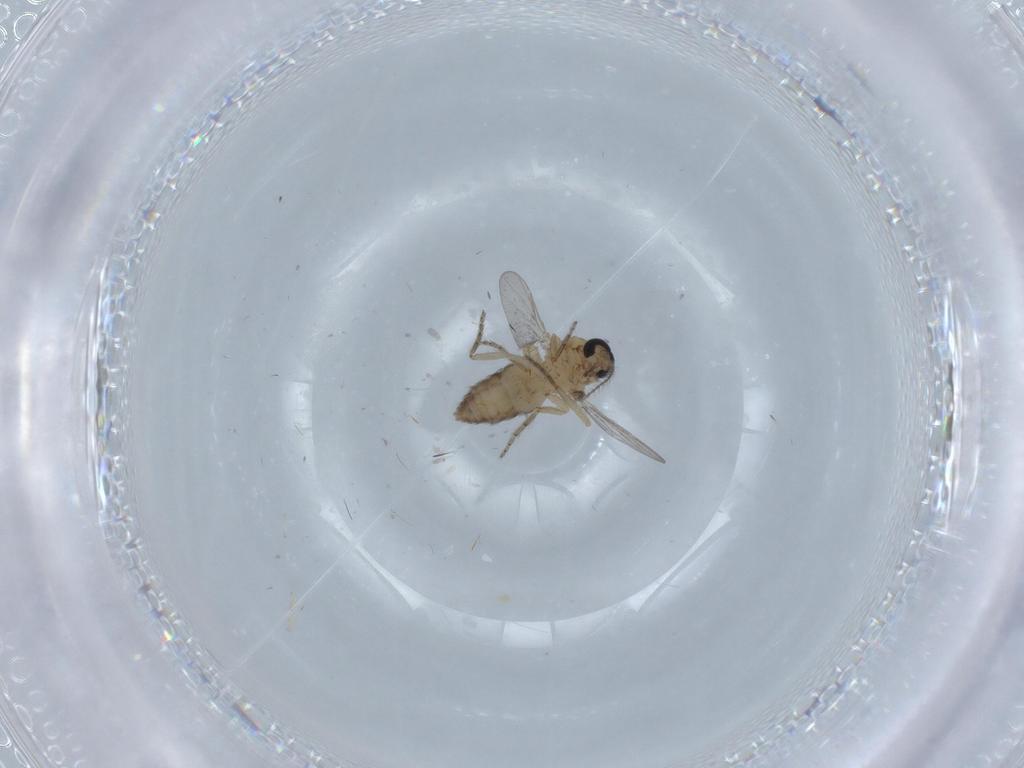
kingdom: Animalia
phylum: Arthropoda
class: Insecta
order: Diptera
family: Ceratopogonidae
